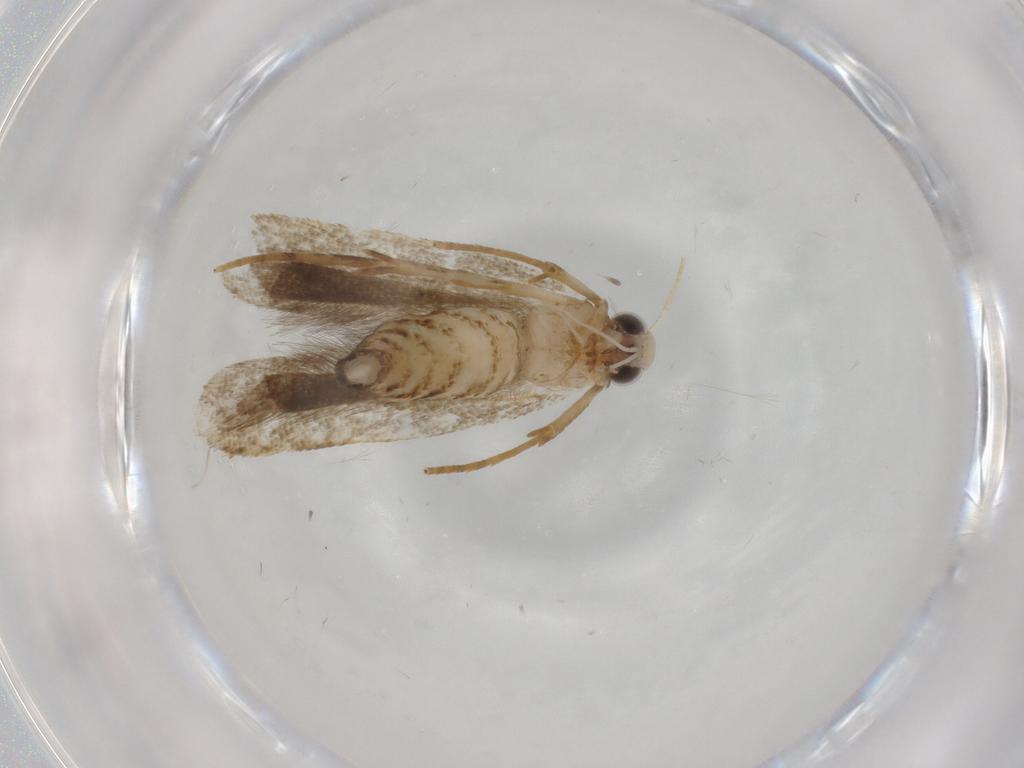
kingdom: Animalia
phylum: Arthropoda
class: Insecta
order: Lepidoptera
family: Gelechiidae
